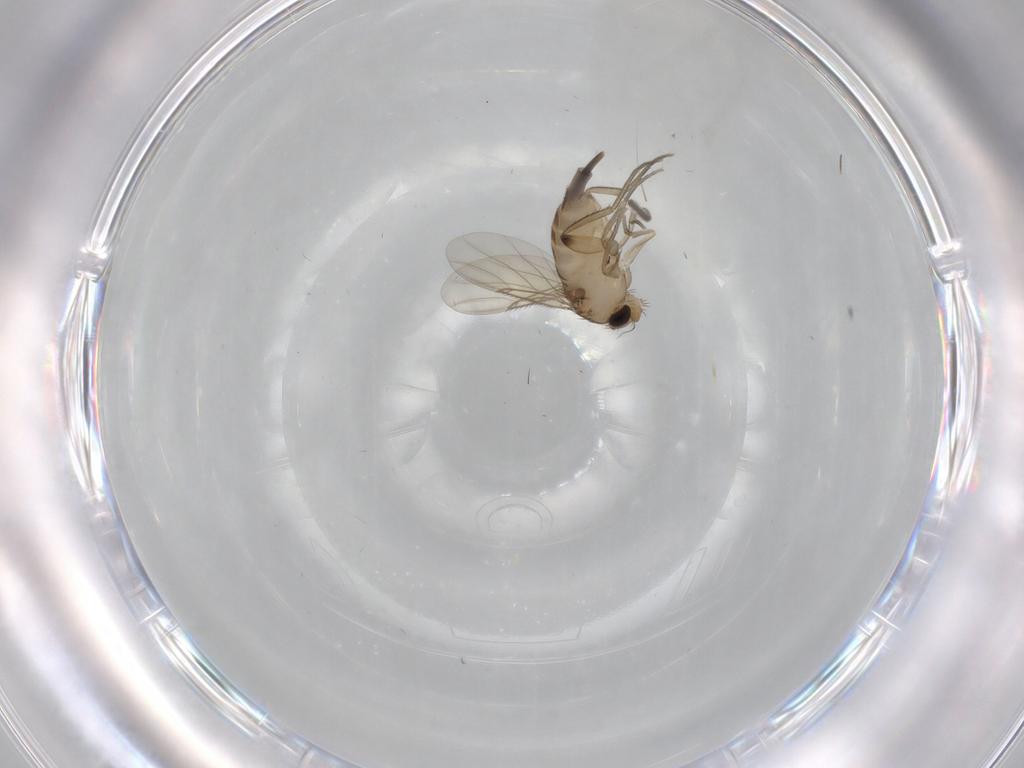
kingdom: Animalia
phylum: Arthropoda
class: Insecta
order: Diptera
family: Sciaridae
